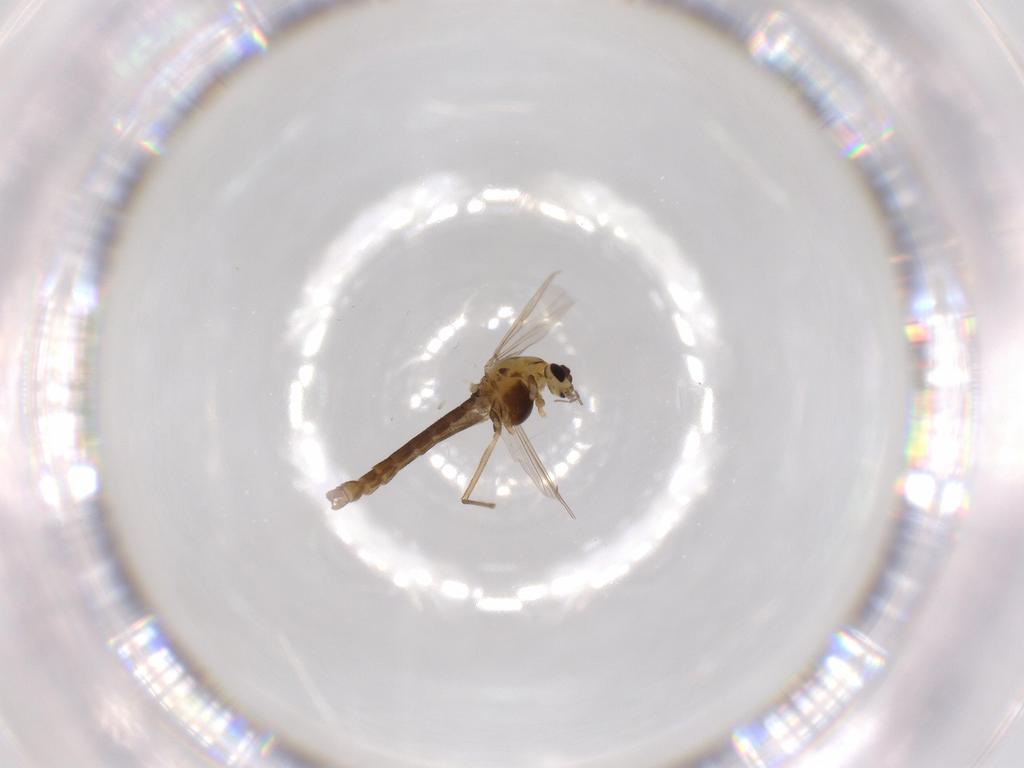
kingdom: Animalia
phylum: Arthropoda
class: Insecta
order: Diptera
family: Chironomidae
